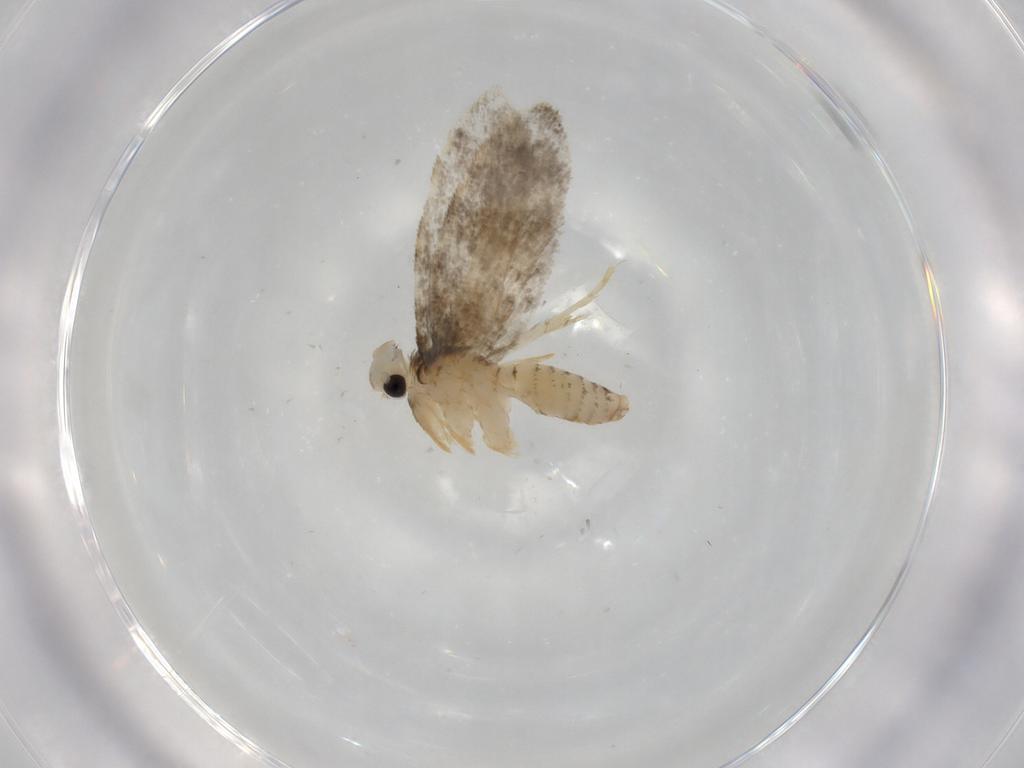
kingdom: Animalia
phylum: Arthropoda
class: Insecta
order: Lepidoptera
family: Psychidae
